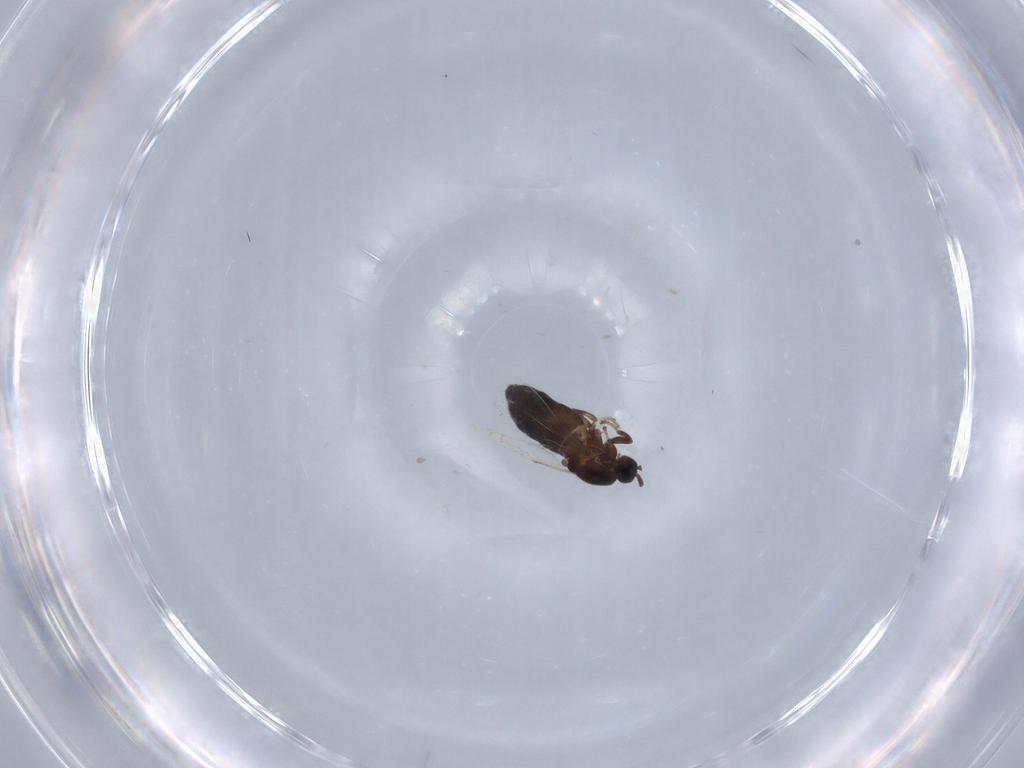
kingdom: Animalia
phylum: Arthropoda
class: Insecta
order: Diptera
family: Scatopsidae
